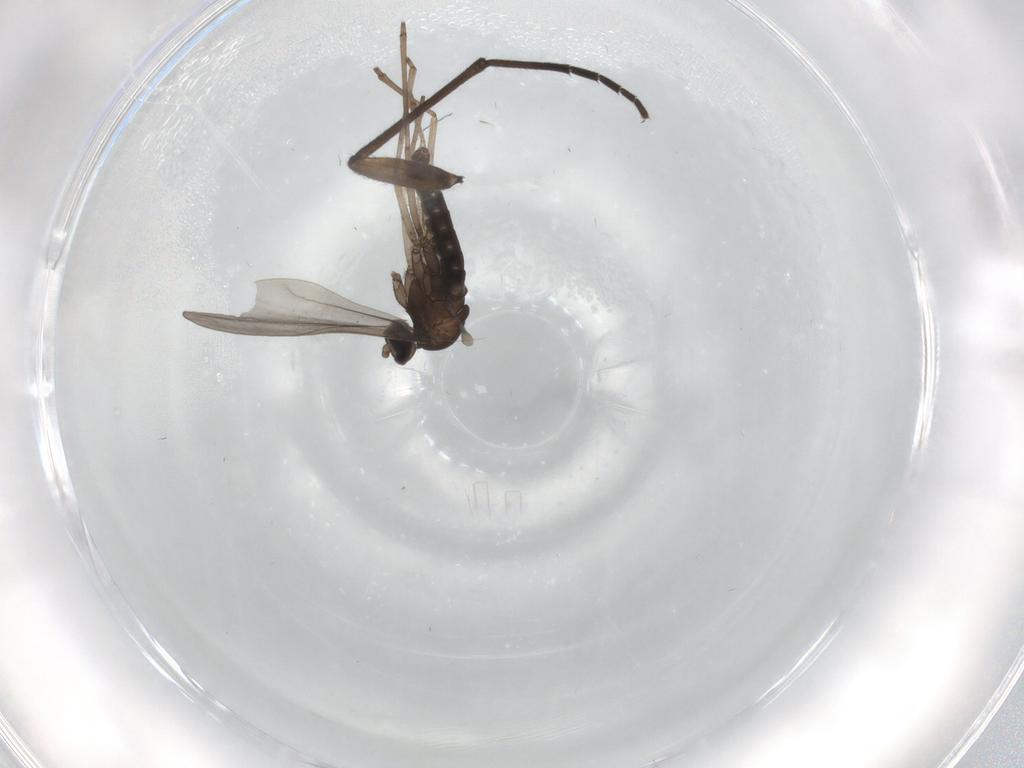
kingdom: Animalia
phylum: Arthropoda
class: Insecta
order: Diptera
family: Cecidomyiidae
